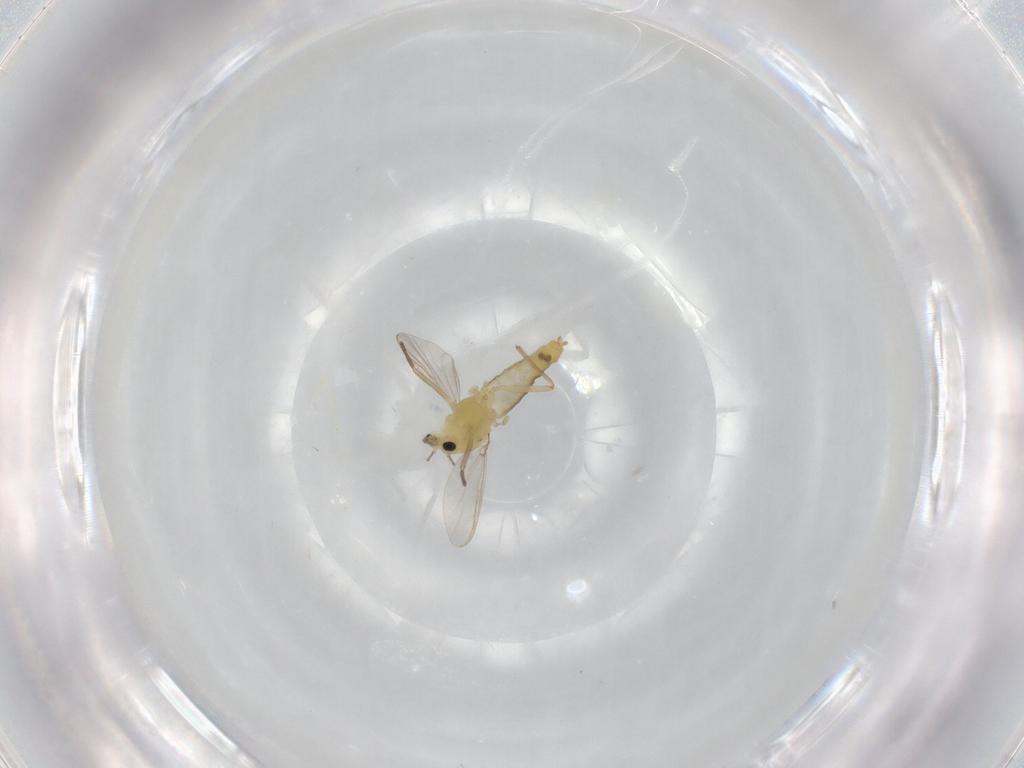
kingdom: Animalia
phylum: Arthropoda
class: Insecta
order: Diptera
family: Chironomidae
